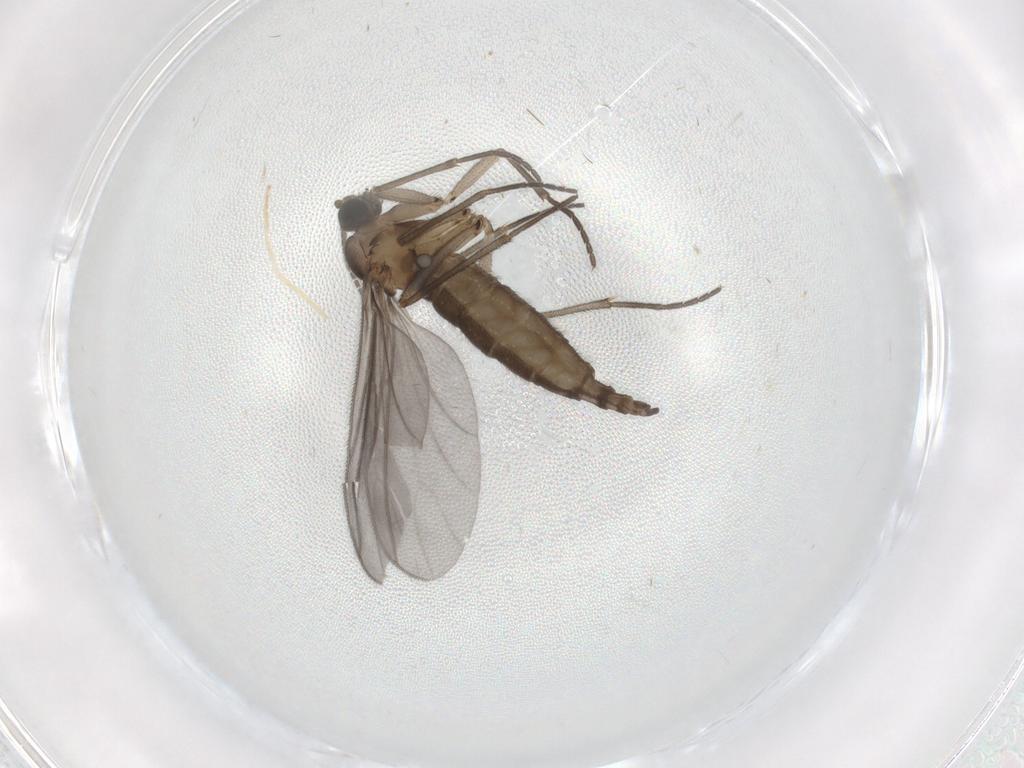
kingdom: Animalia
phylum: Arthropoda
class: Insecta
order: Diptera
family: Sciaridae
